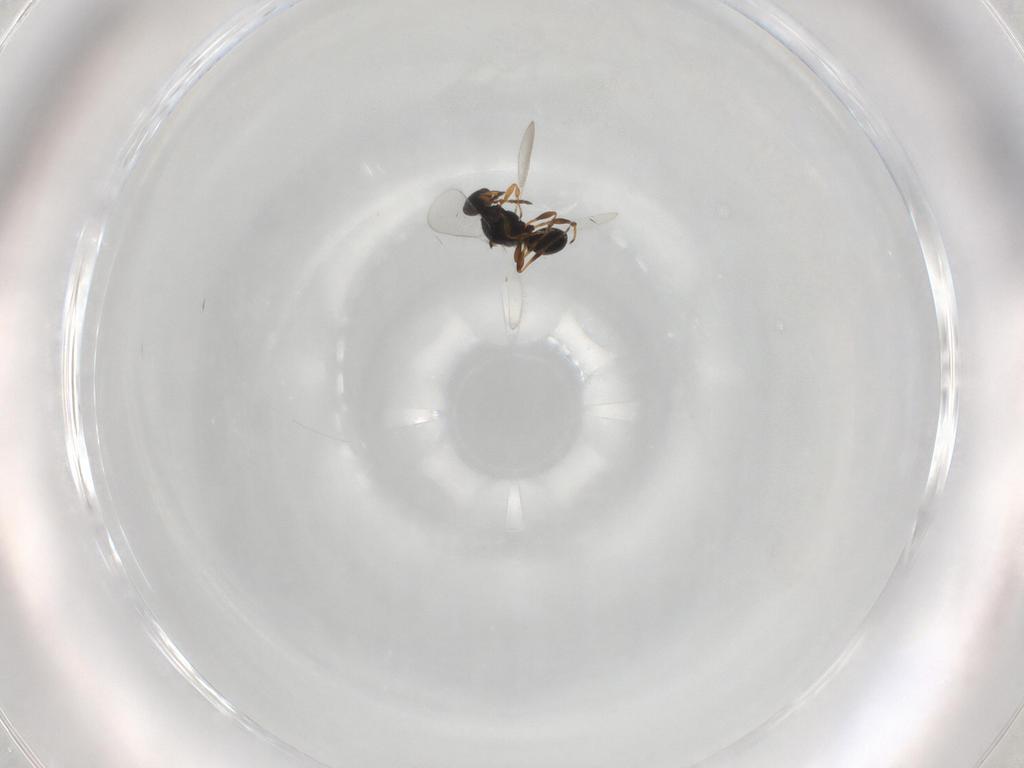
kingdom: Animalia
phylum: Arthropoda
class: Insecta
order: Hymenoptera
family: Platygastridae
